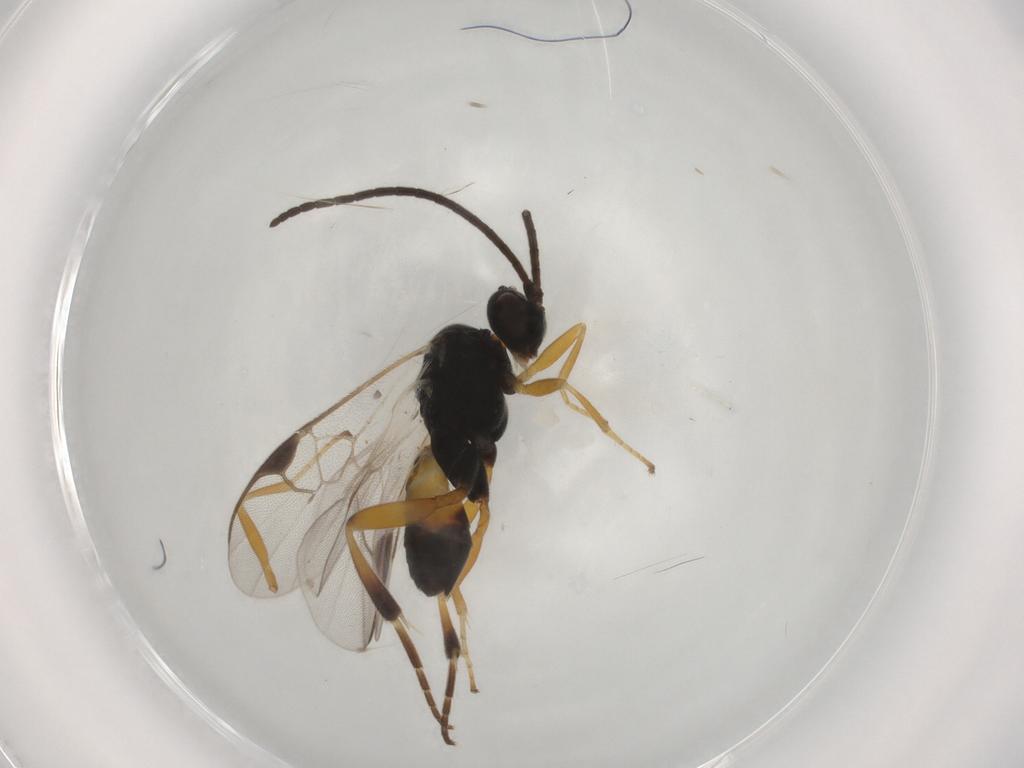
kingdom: Animalia
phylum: Arthropoda
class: Insecta
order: Hymenoptera
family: Braconidae
